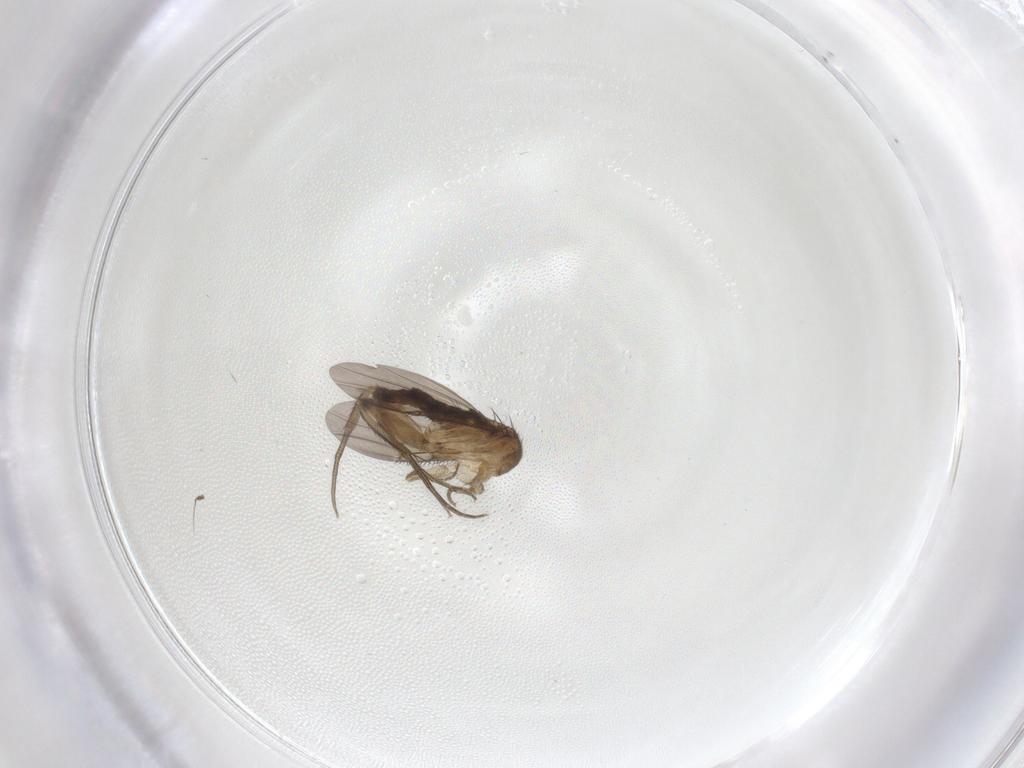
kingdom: Animalia
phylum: Arthropoda
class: Insecta
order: Diptera
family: Phoridae
